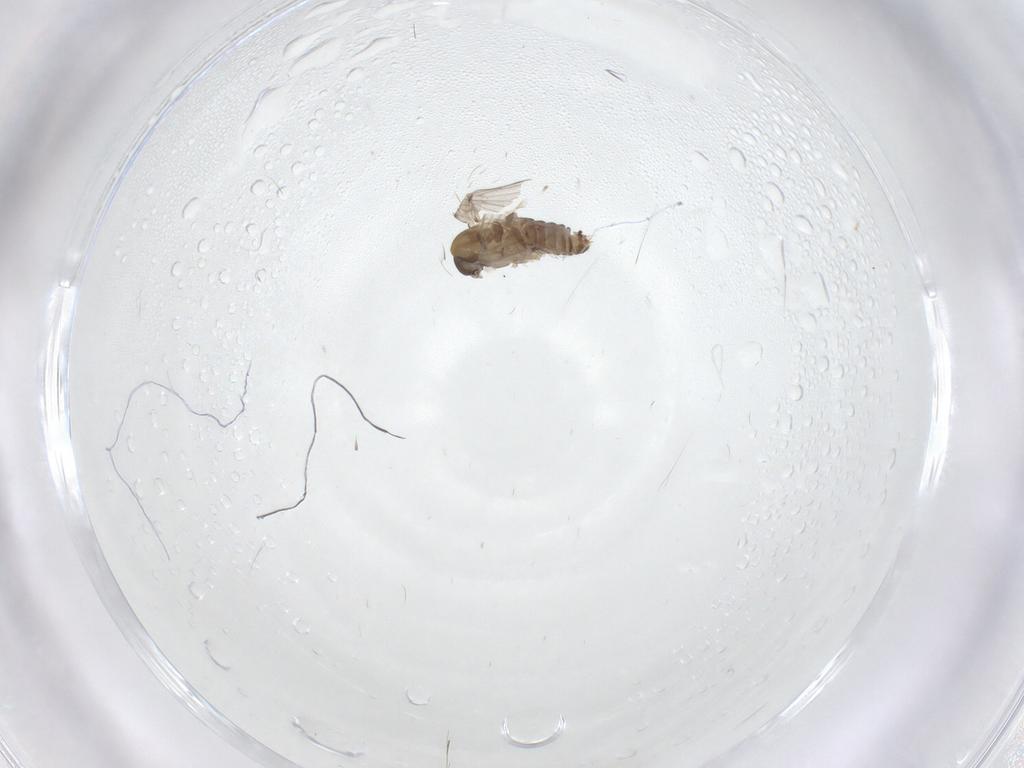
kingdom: Animalia
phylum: Arthropoda
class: Insecta
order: Diptera
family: Psychodidae
